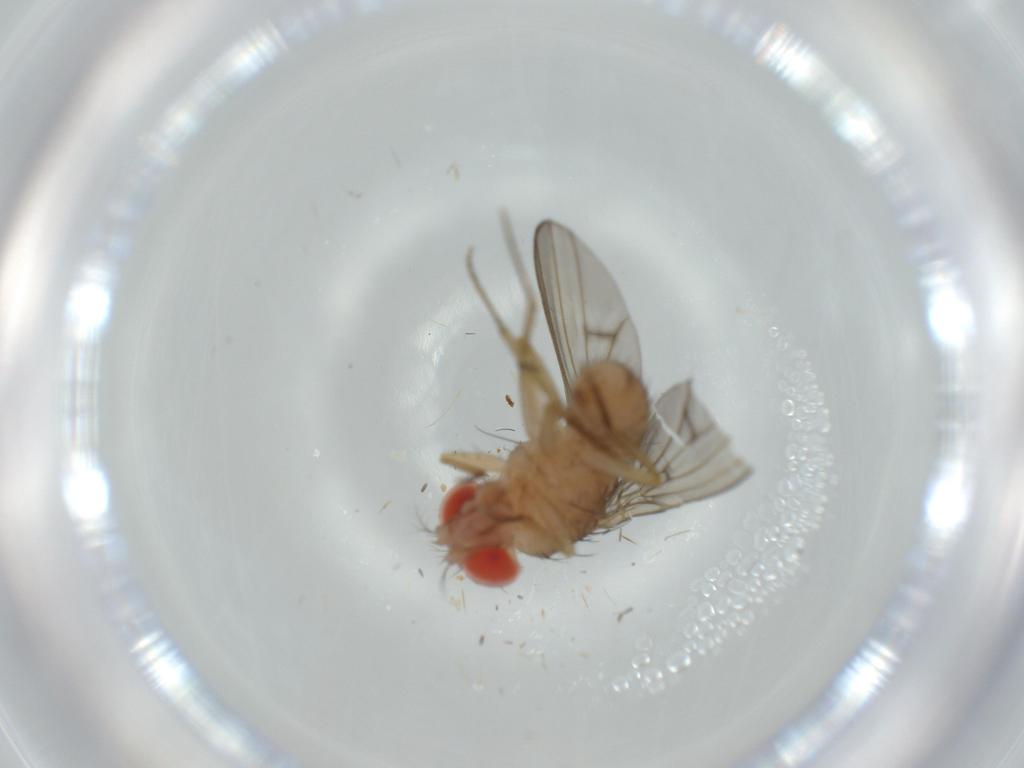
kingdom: Animalia
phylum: Arthropoda
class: Insecta
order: Diptera
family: Drosophilidae
